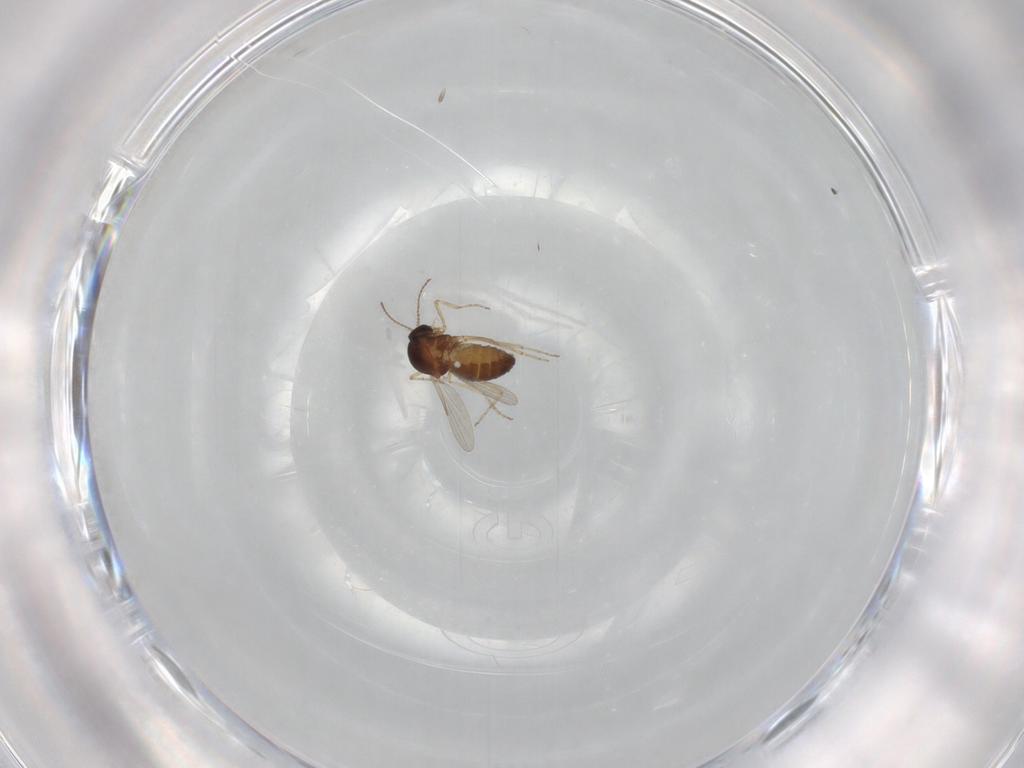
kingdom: Animalia
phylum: Arthropoda
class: Insecta
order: Diptera
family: Ceratopogonidae
